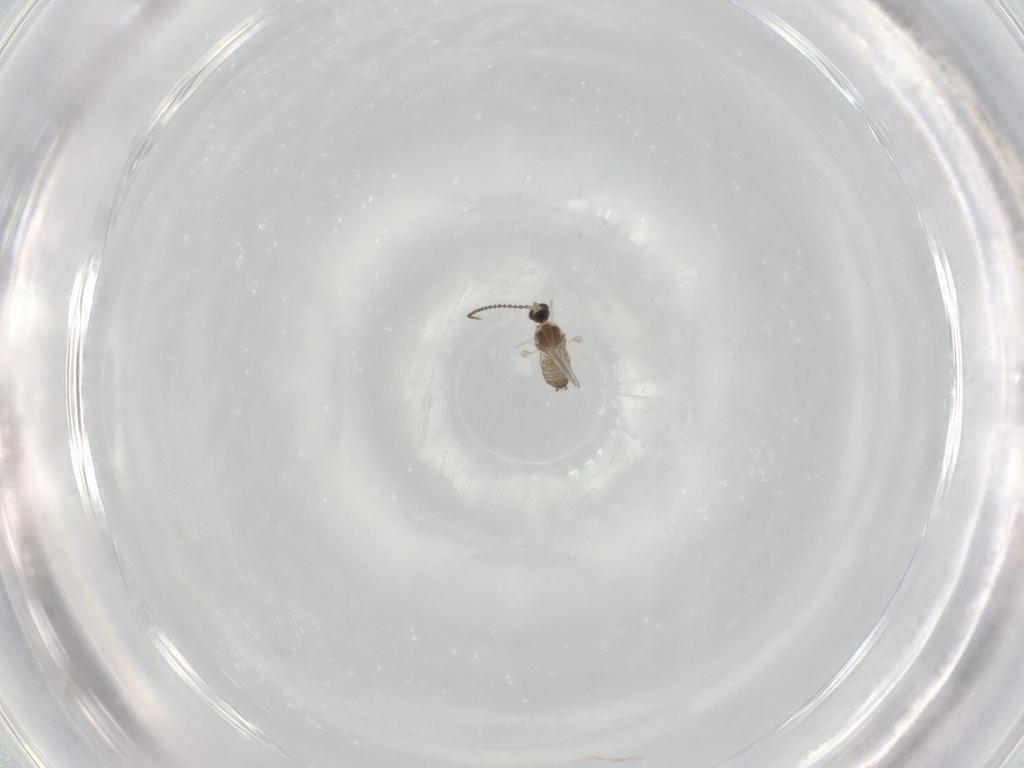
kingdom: Animalia
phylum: Arthropoda
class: Insecta
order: Diptera
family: Cecidomyiidae
